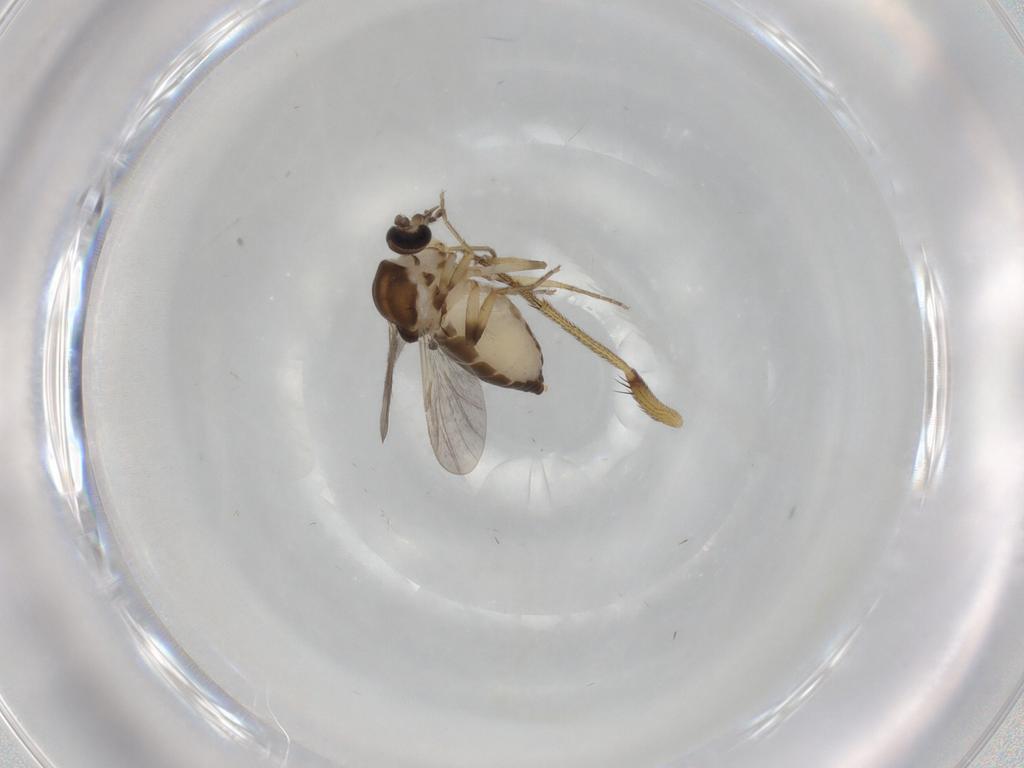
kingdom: Animalia
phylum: Arthropoda
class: Insecta
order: Diptera
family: Ceratopogonidae
